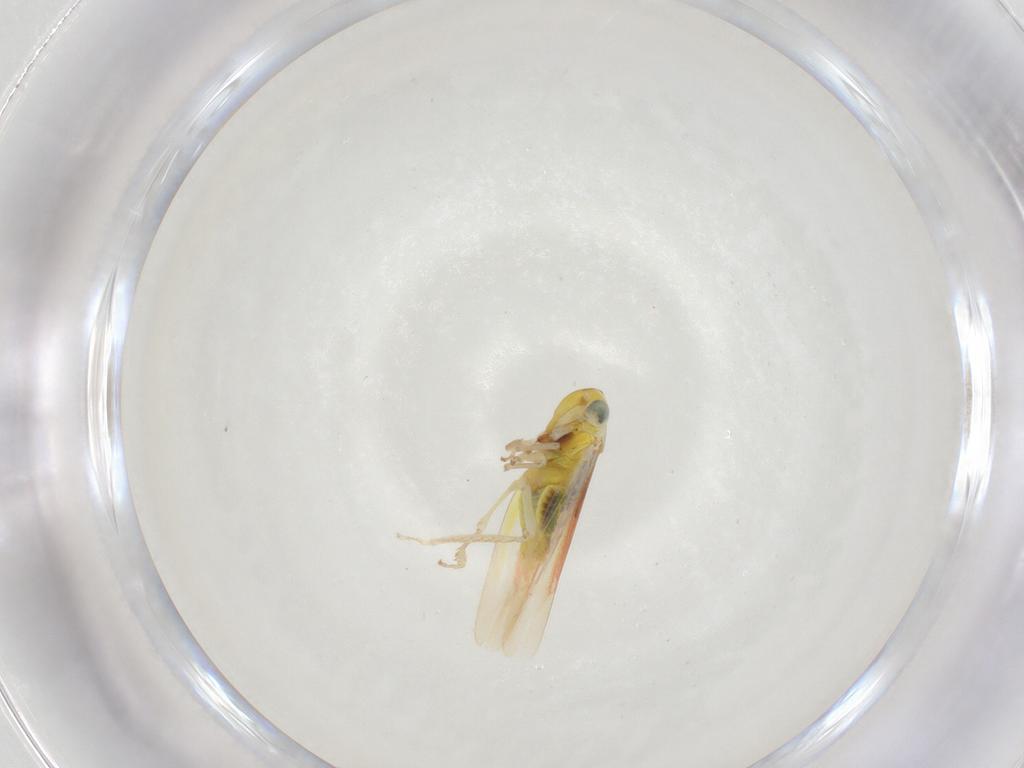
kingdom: Animalia
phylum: Arthropoda
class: Insecta
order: Hemiptera
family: Cicadellidae
